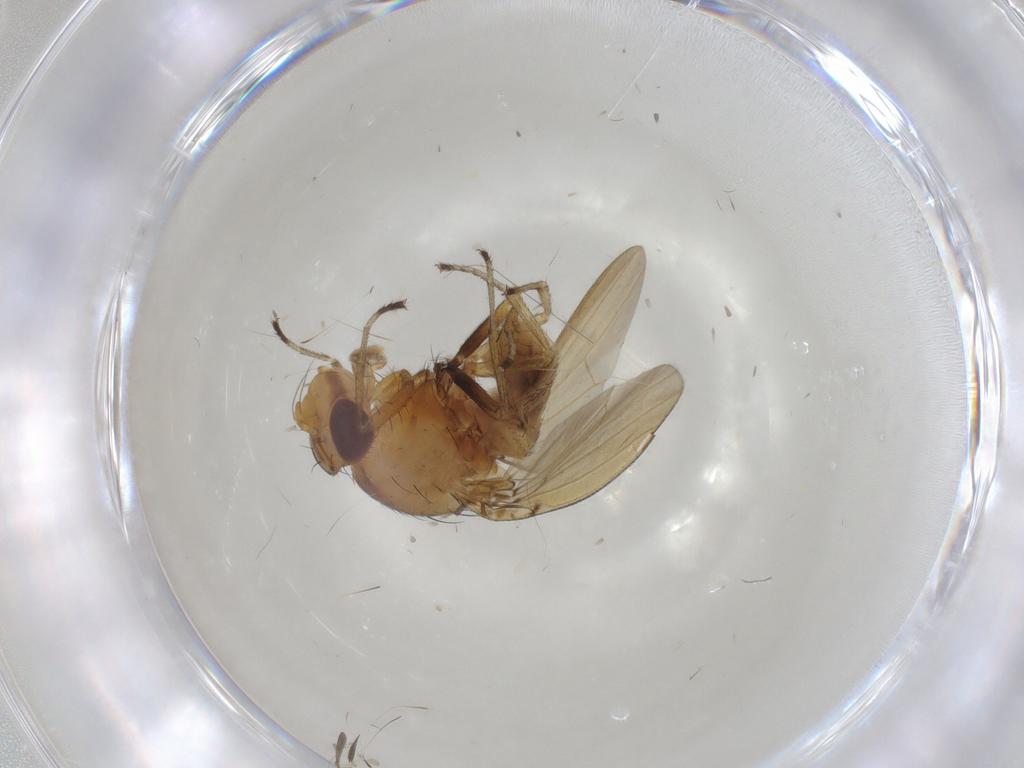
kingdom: Animalia
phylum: Arthropoda
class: Insecta
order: Diptera
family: Lauxaniidae
